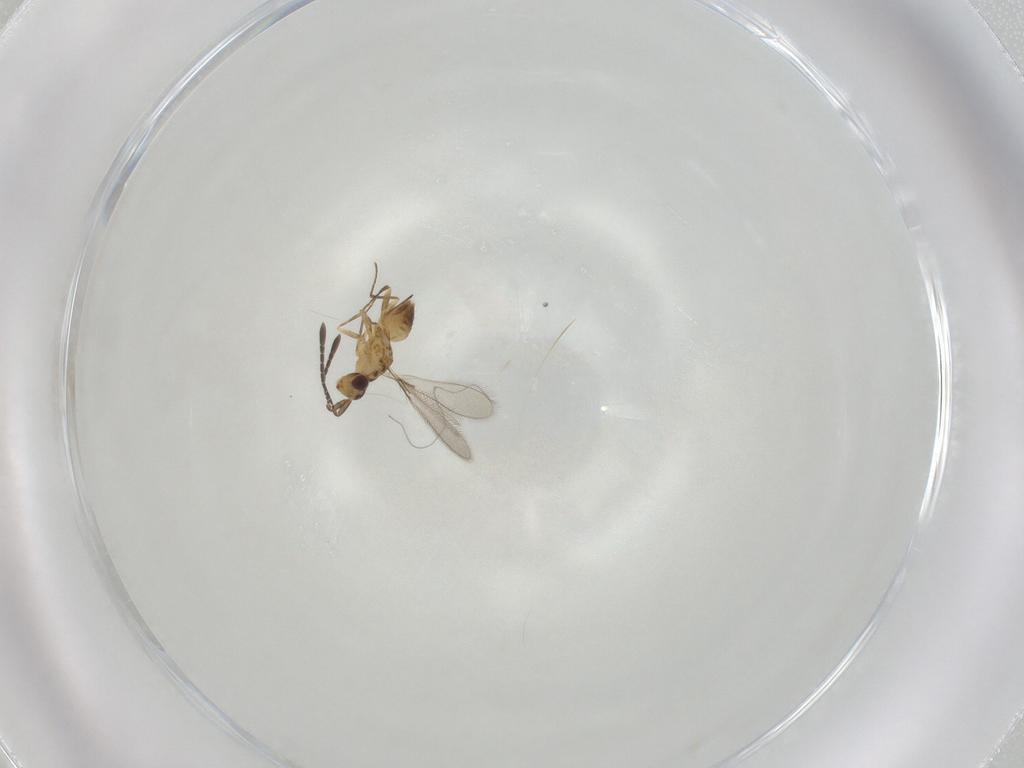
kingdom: Animalia
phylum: Arthropoda
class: Insecta
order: Hymenoptera
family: Mymaridae
